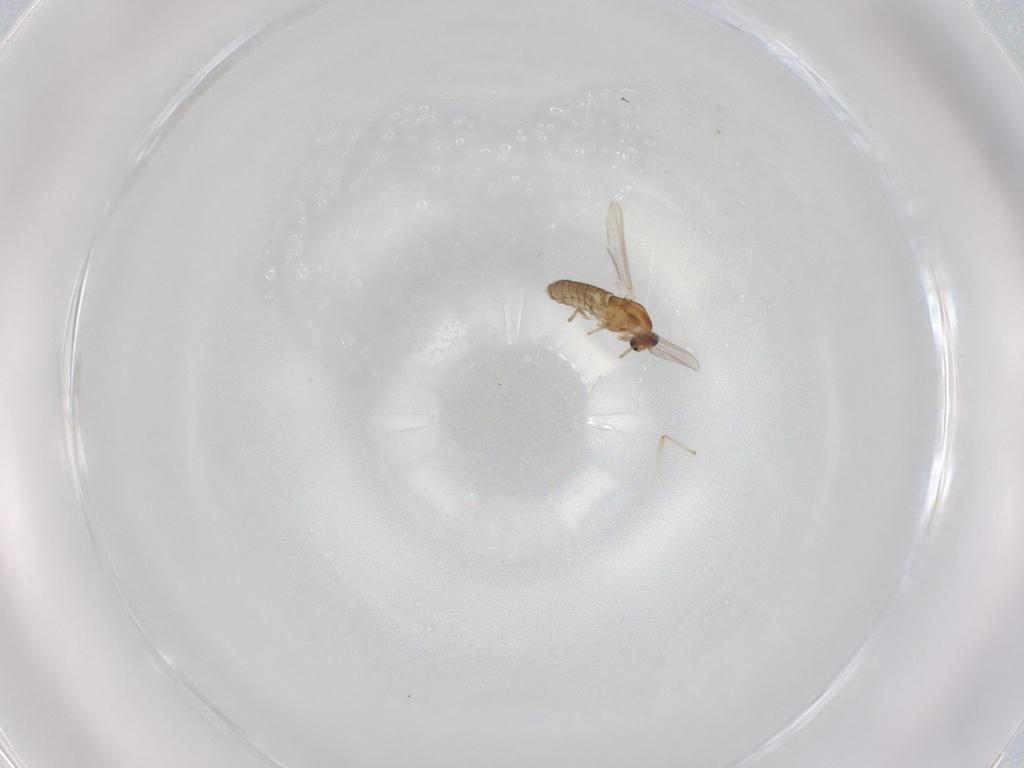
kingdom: Animalia
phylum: Arthropoda
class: Insecta
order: Diptera
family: Chironomidae
